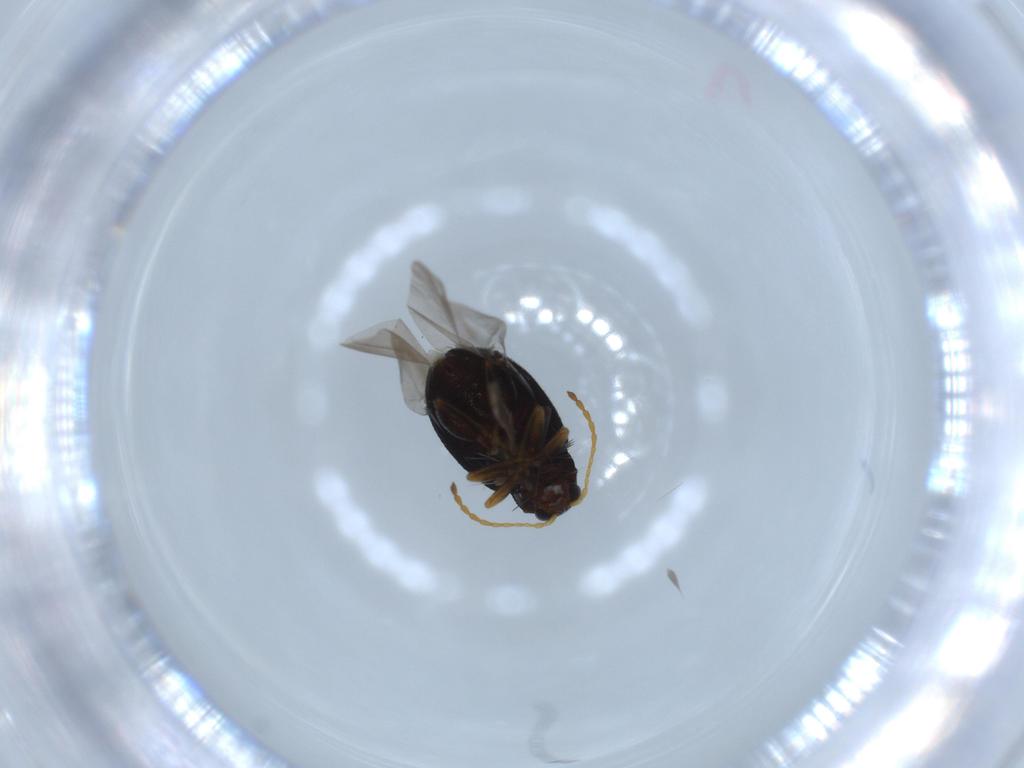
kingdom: Animalia
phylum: Arthropoda
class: Insecta
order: Coleoptera
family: Chrysomelidae
